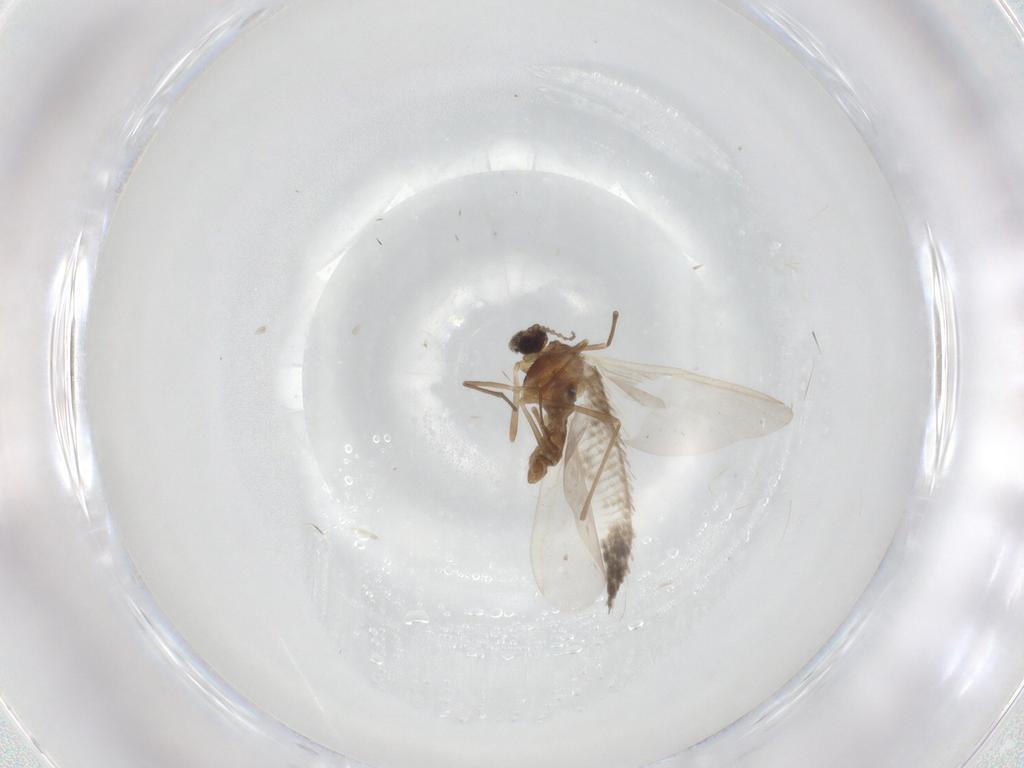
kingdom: Animalia
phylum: Arthropoda
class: Insecta
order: Diptera
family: Cecidomyiidae
